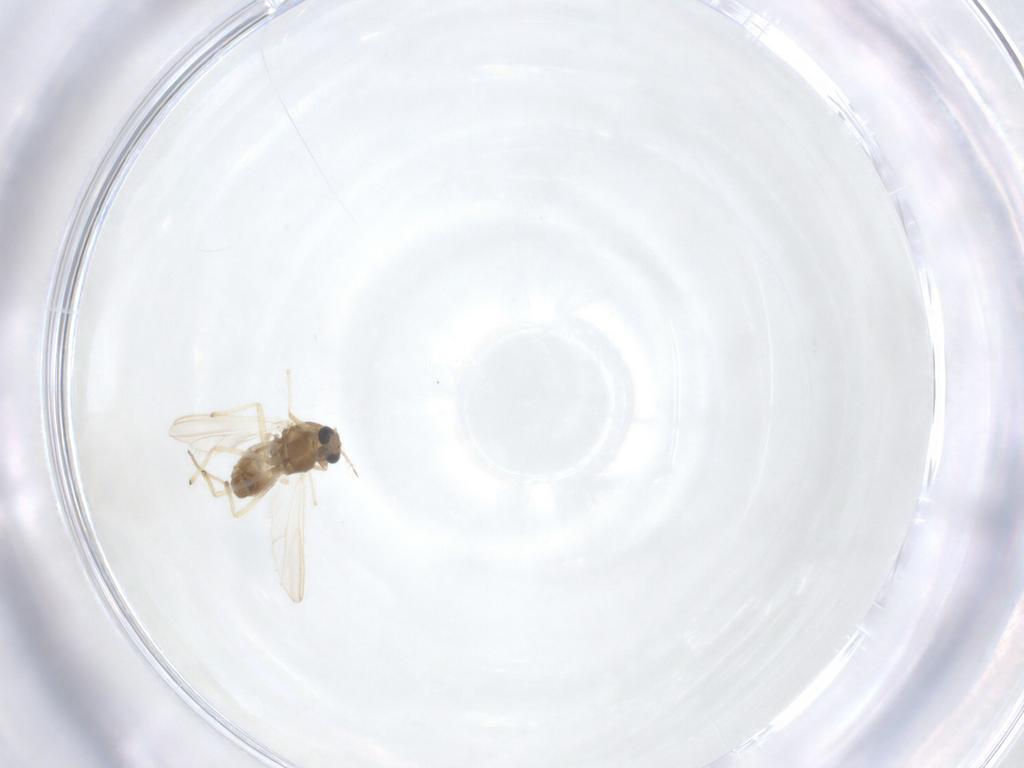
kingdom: Animalia
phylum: Arthropoda
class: Insecta
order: Diptera
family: Chironomidae
